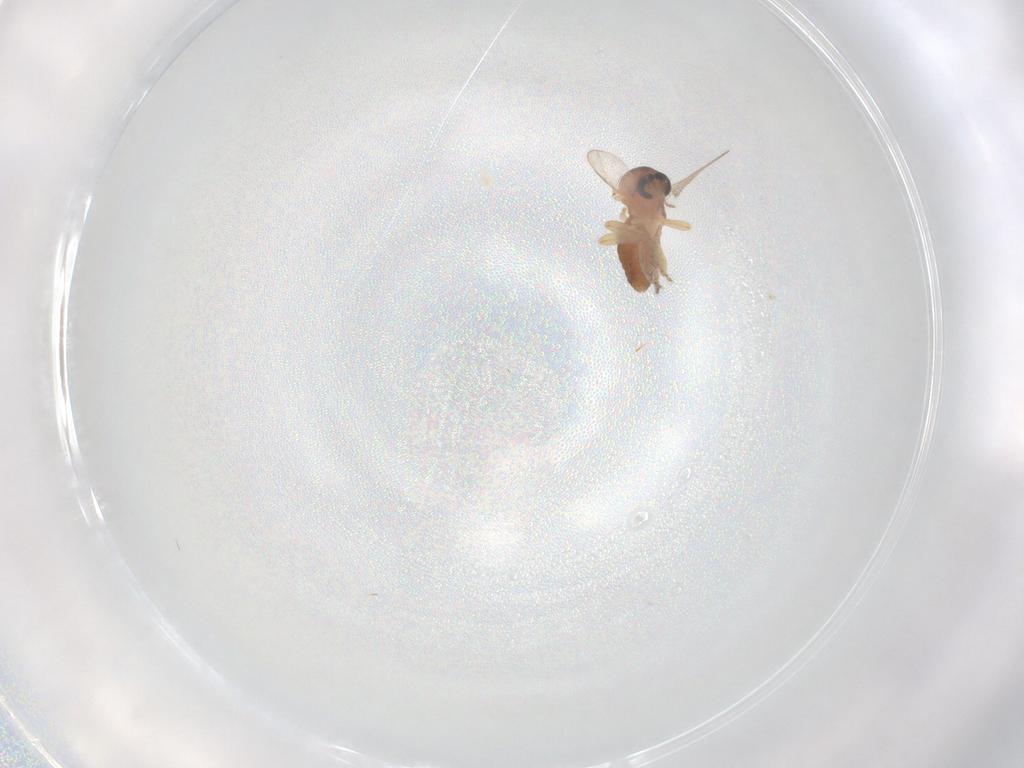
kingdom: Animalia
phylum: Arthropoda
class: Insecta
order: Diptera
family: Ceratopogonidae
